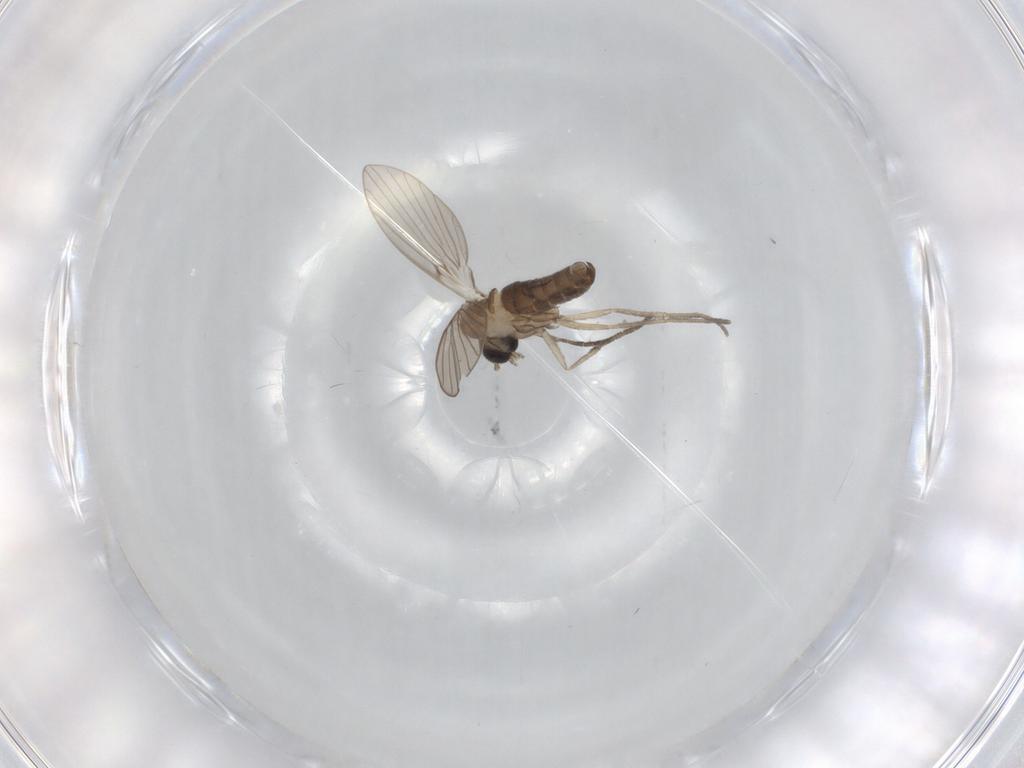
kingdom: Animalia
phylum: Arthropoda
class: Insecta
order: Diptera
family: Psychodidae
